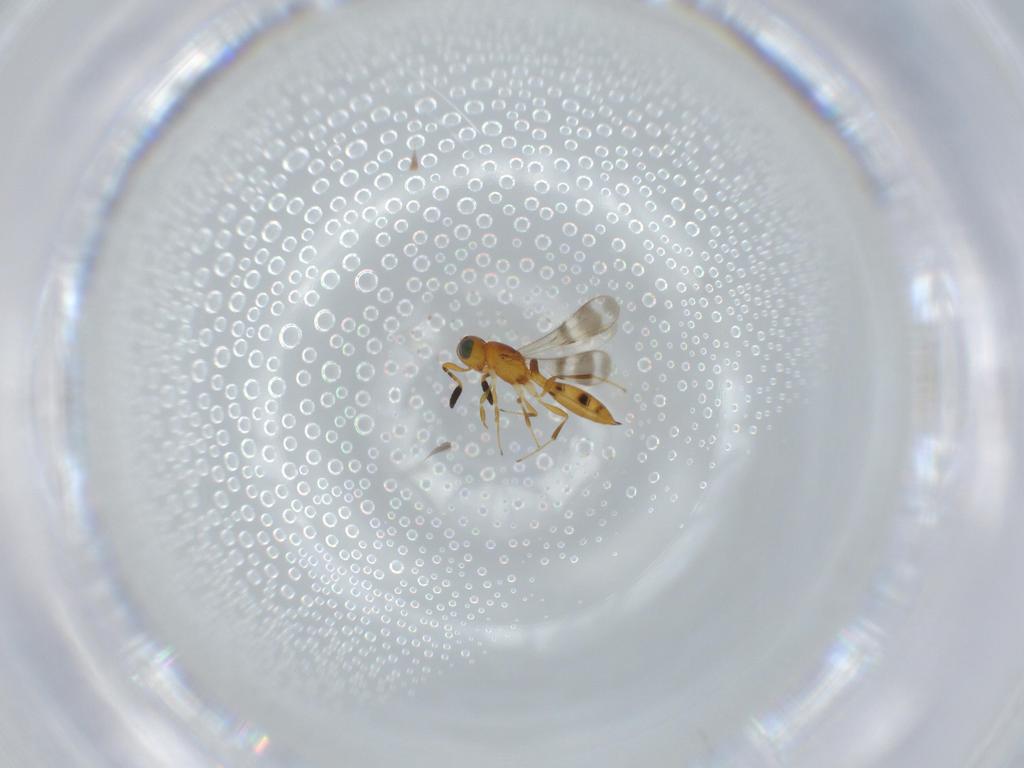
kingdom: Animalia
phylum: Arthropoda
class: Insecta
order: Hymenoptera
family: Scelionidae
